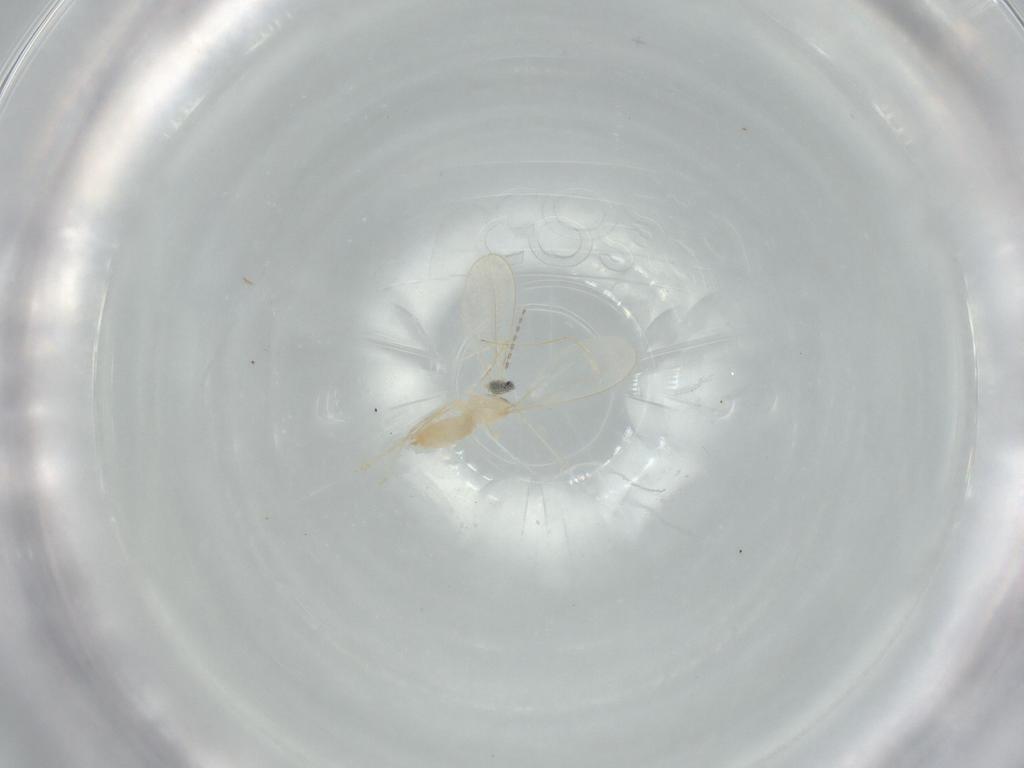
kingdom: Animalia
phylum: Arthropoda
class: Insecta
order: Diptera
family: Cecidomyiidae
